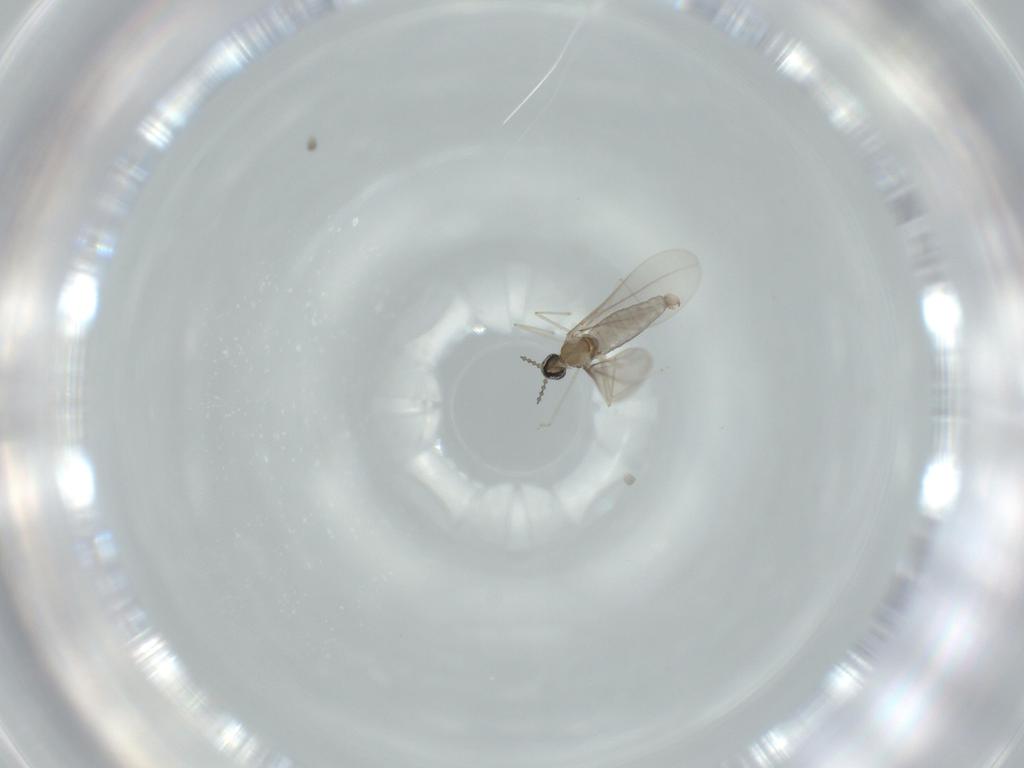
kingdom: Animalia
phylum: Arthropoda
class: Insecta
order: Diptera
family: Cecidomyiidae
